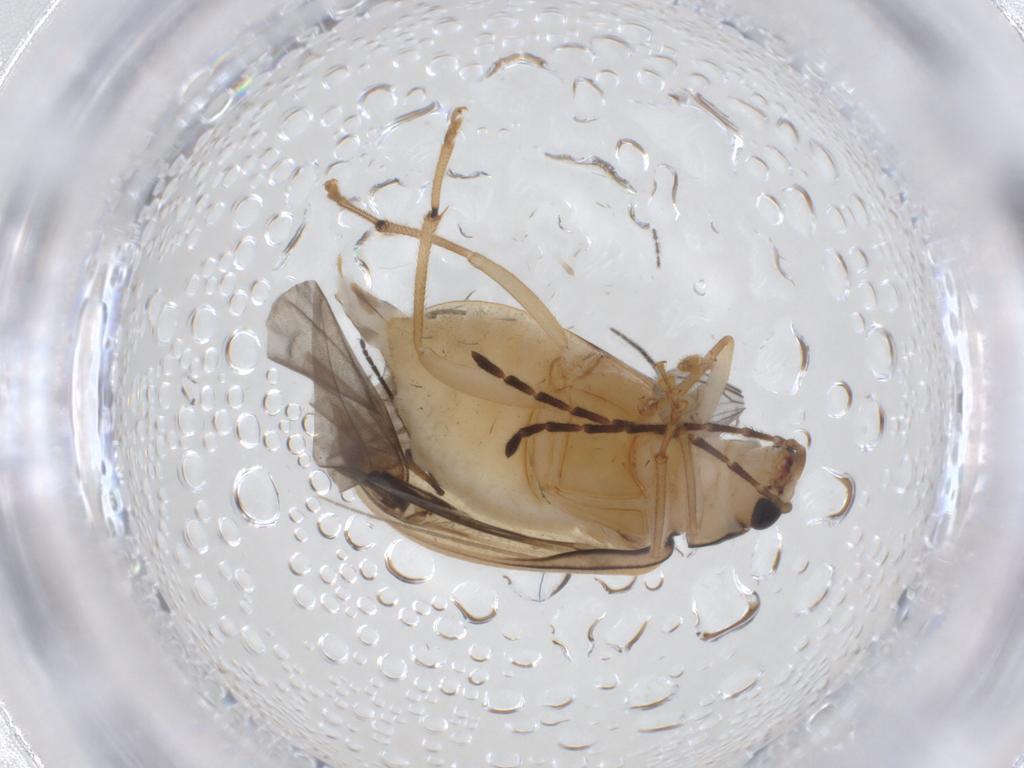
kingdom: Animalia
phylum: Arthropoda
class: Insecta
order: Coleoptera
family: Chrysomelidae
